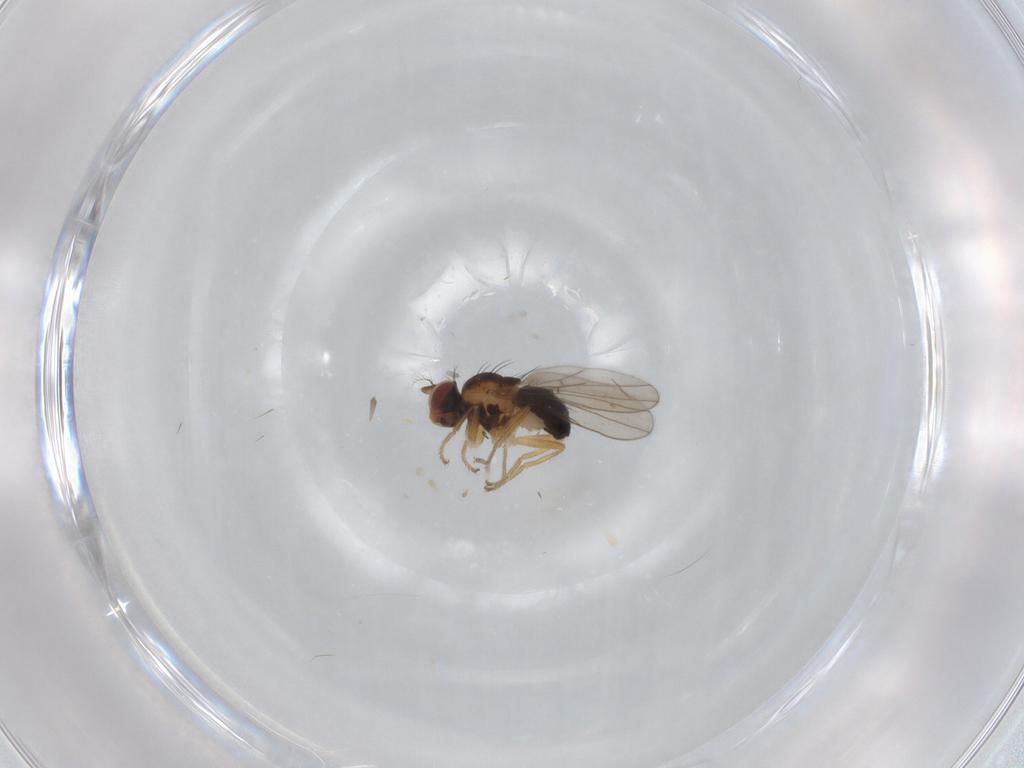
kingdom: Animalia
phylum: Arthropoda
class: Insecta
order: Diptera
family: Ephydridae
